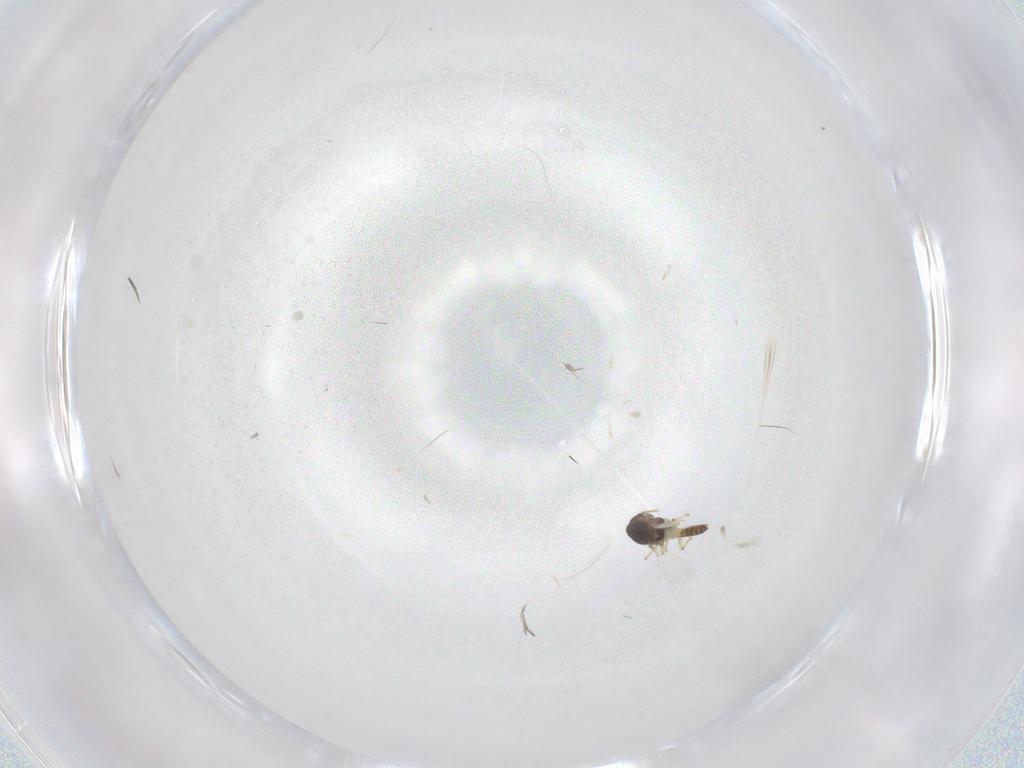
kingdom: Animalia
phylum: Arthropoda
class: Insecta
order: Diptera
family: Chironomidae
